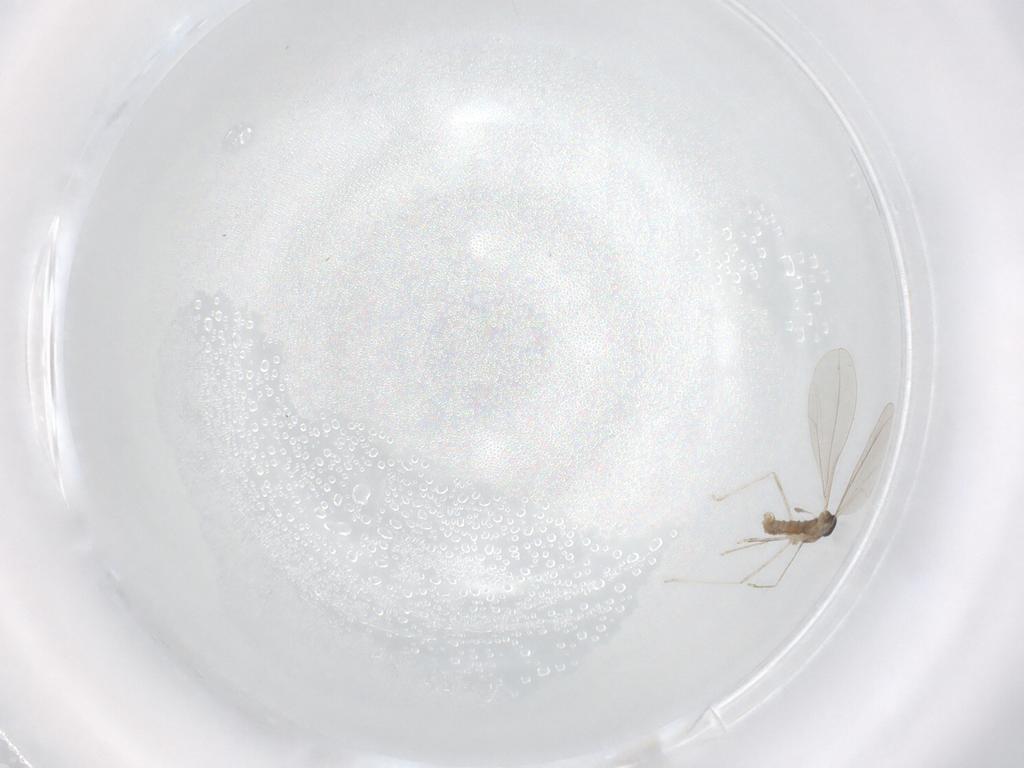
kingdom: Animalia
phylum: Arthropoda
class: Insecta
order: Diptera
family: Cecidomyiidae
